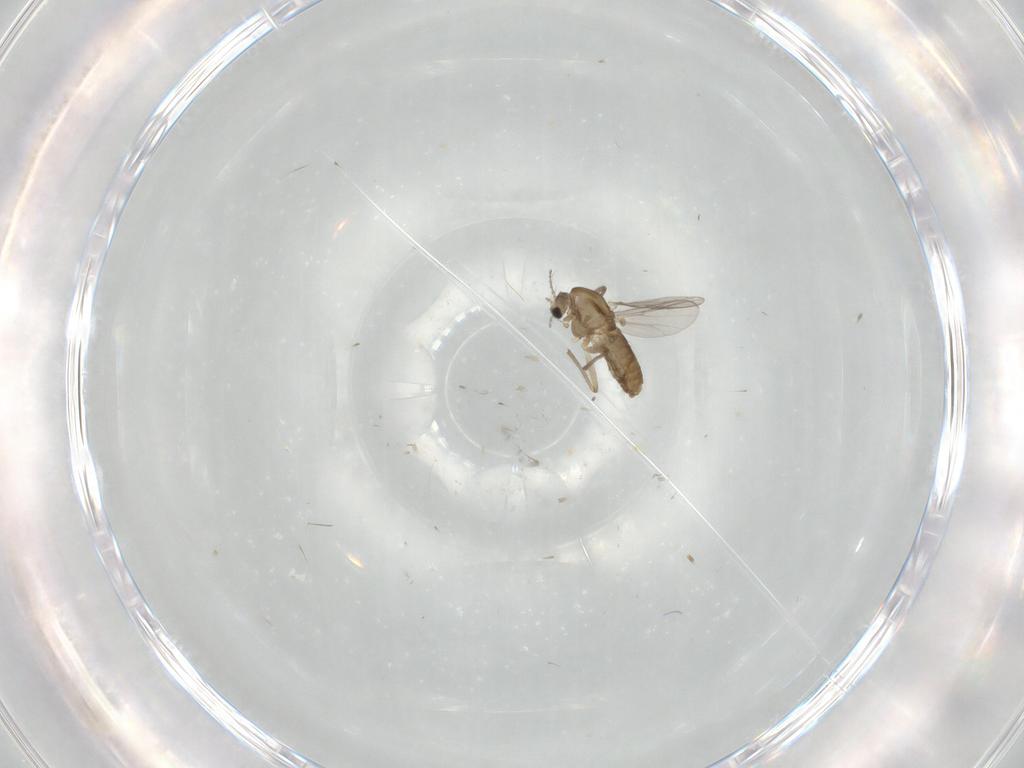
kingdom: Animalia
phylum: Arthropoda
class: Insecta
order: Diptera
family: Chironomidae
